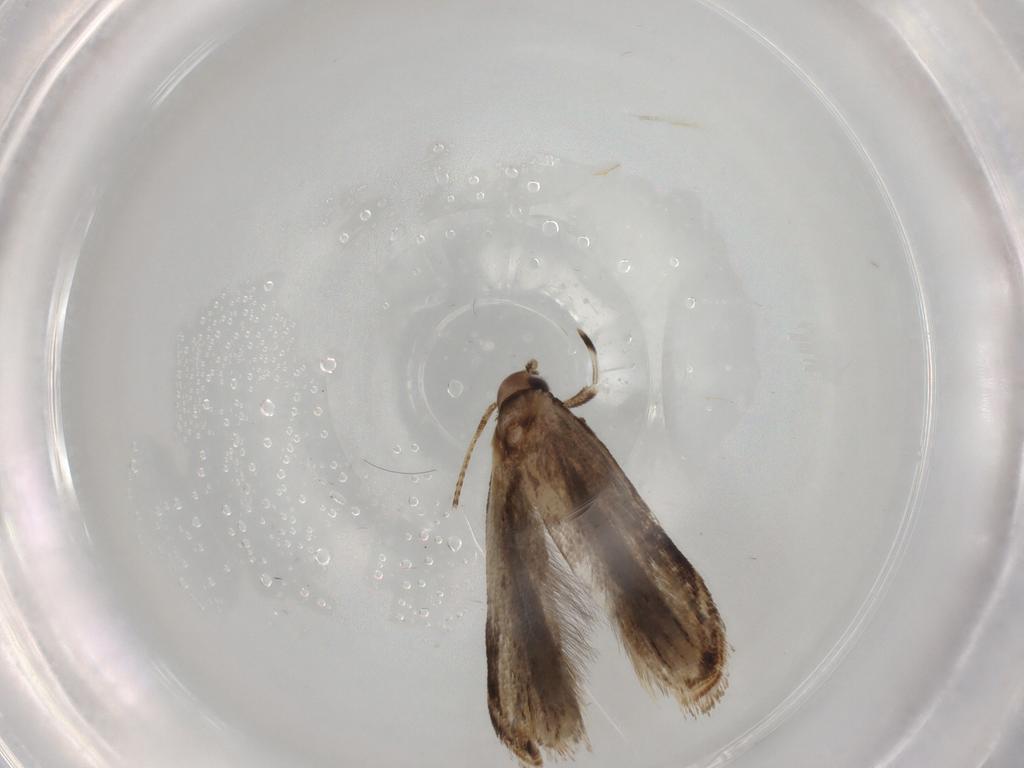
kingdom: Animalia
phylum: Arthropoda
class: Insecta
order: Lepidoptera
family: Gelechiidae
